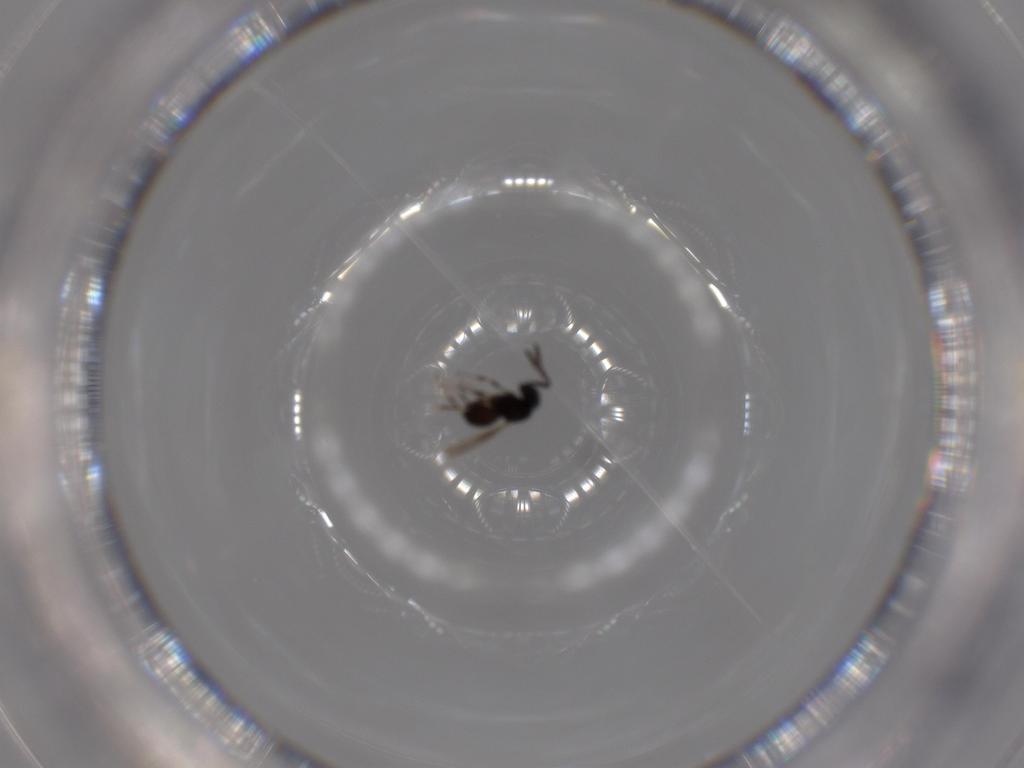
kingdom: Animalia
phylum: Arthropoda
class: Insecta
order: Hymenoptera
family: Scelionidae
